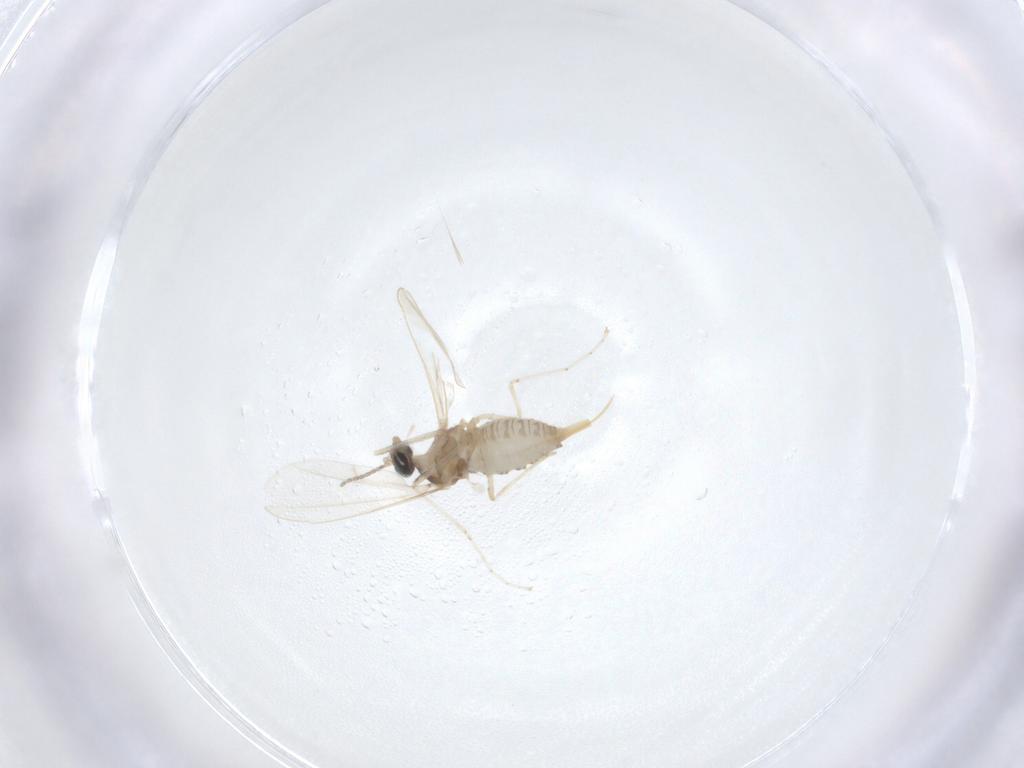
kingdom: Animalia
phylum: Arthropoda
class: Insecta
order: Diptera
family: Cecidomyiidae
